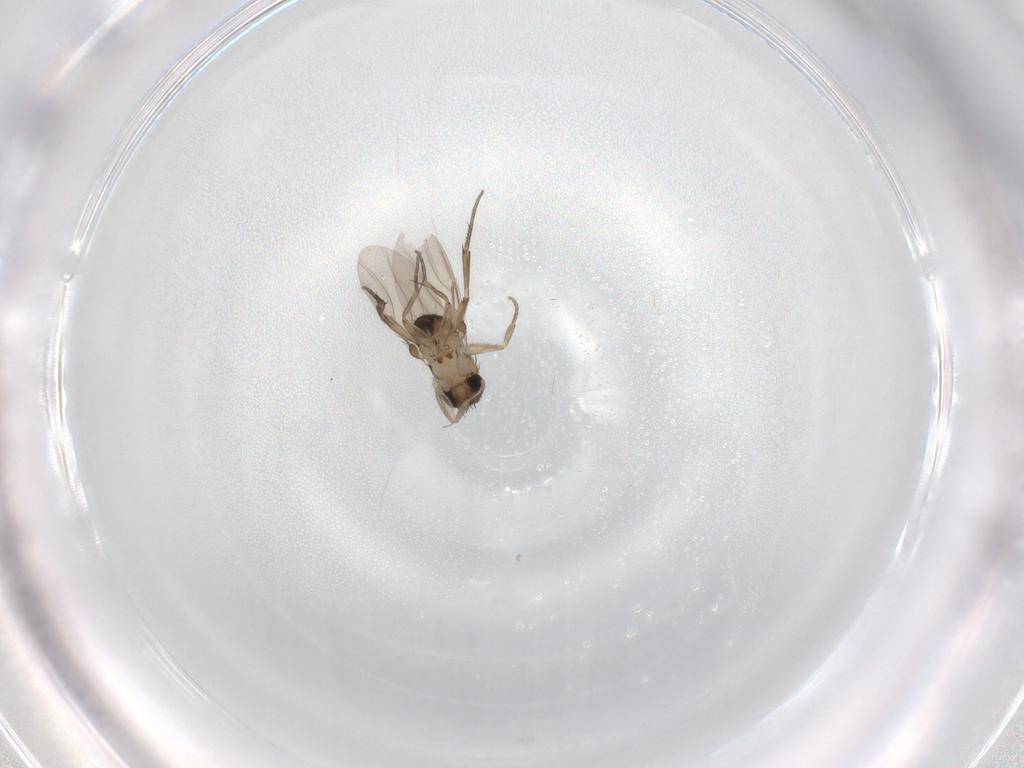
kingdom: Animalia
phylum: Arthropoda
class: Insecta
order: Diptera
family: Phoridae
